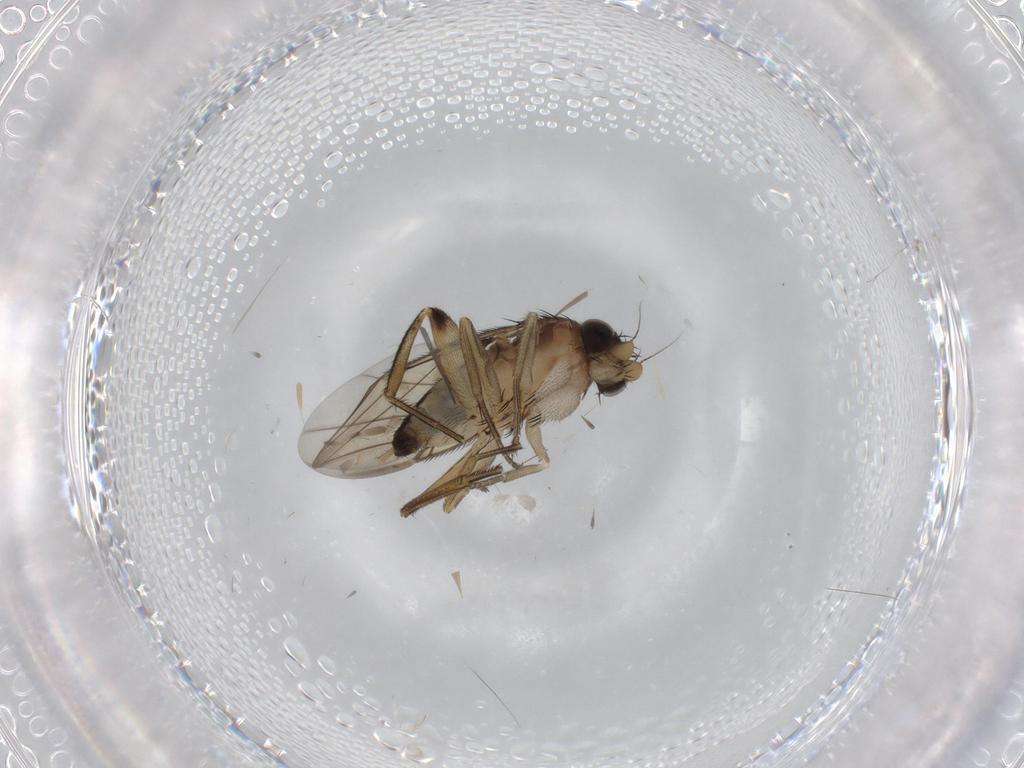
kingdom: Animalia
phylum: Arthropoda
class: Insecta
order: Diptera
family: Phoridae
